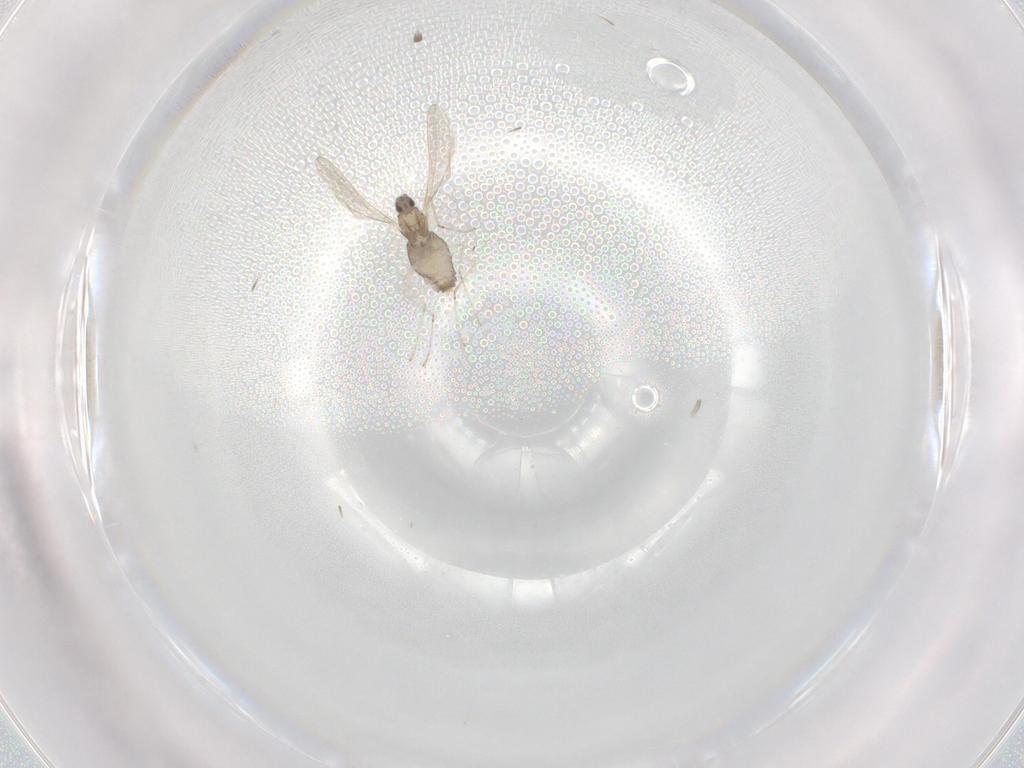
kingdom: Animalia
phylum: Arthropoda
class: Insecta
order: Diptera
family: Cecidomyiidae
